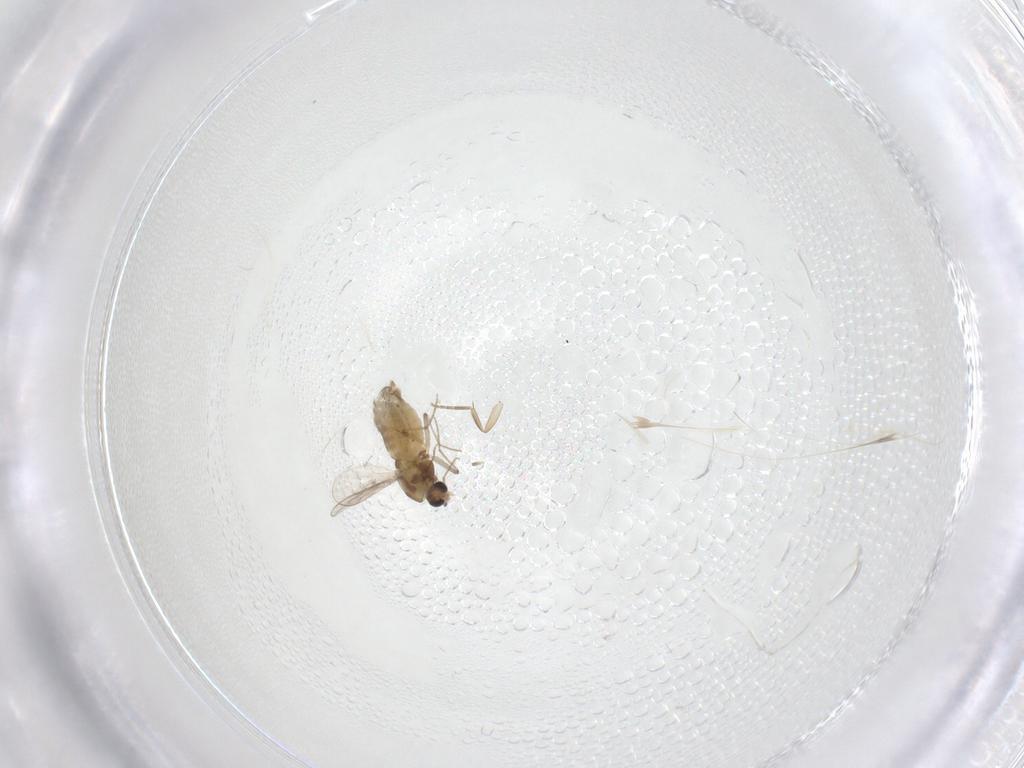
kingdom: Animalia
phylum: Arthropoda
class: Insecta
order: Diptera
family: Chironomidae
